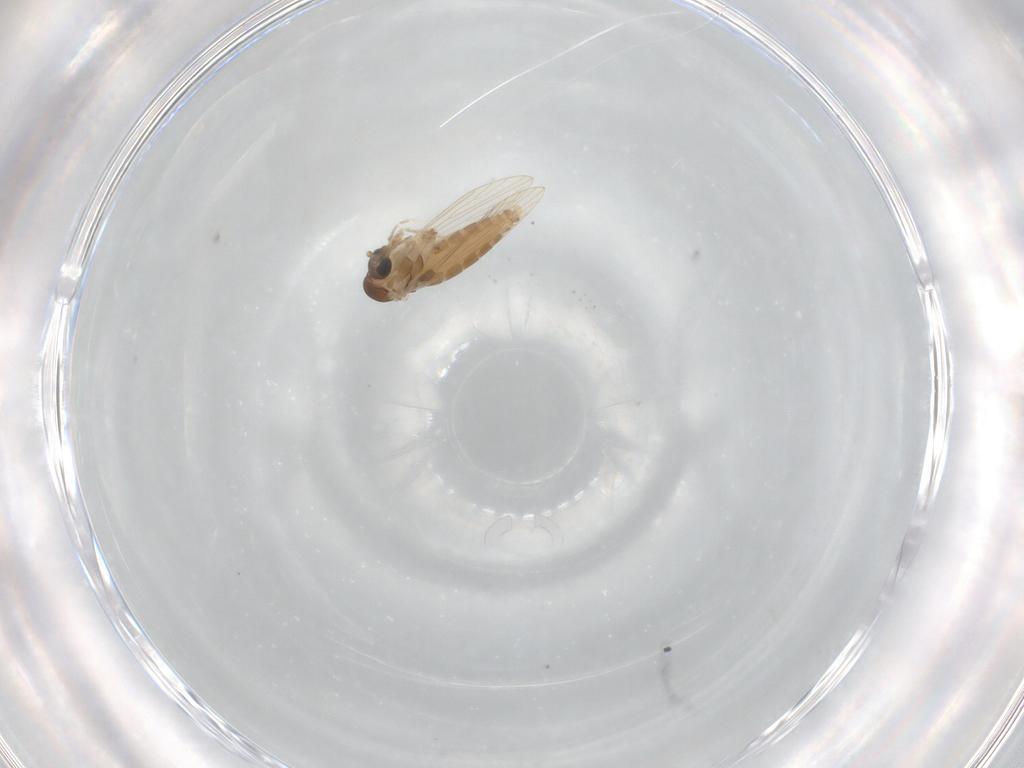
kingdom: Animalia
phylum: Arthropoda
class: Insecta
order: Diptera
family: Psychodidae
